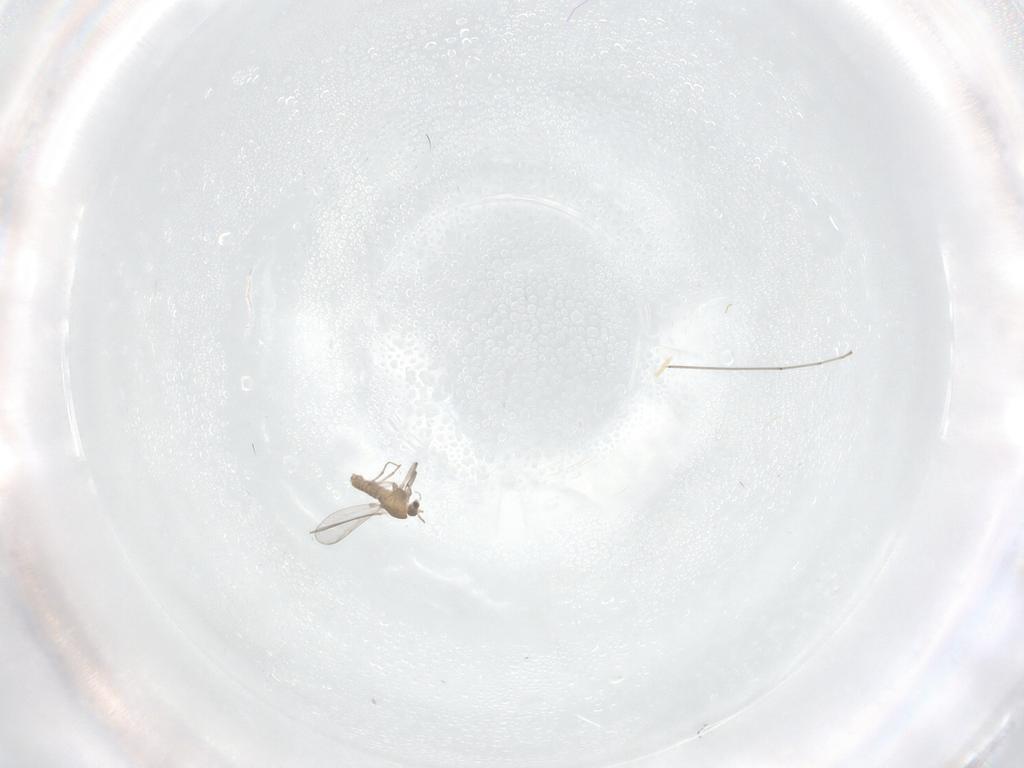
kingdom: Animalia
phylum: Arthropoda
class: Insecta
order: Diptera
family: Chironomidae
